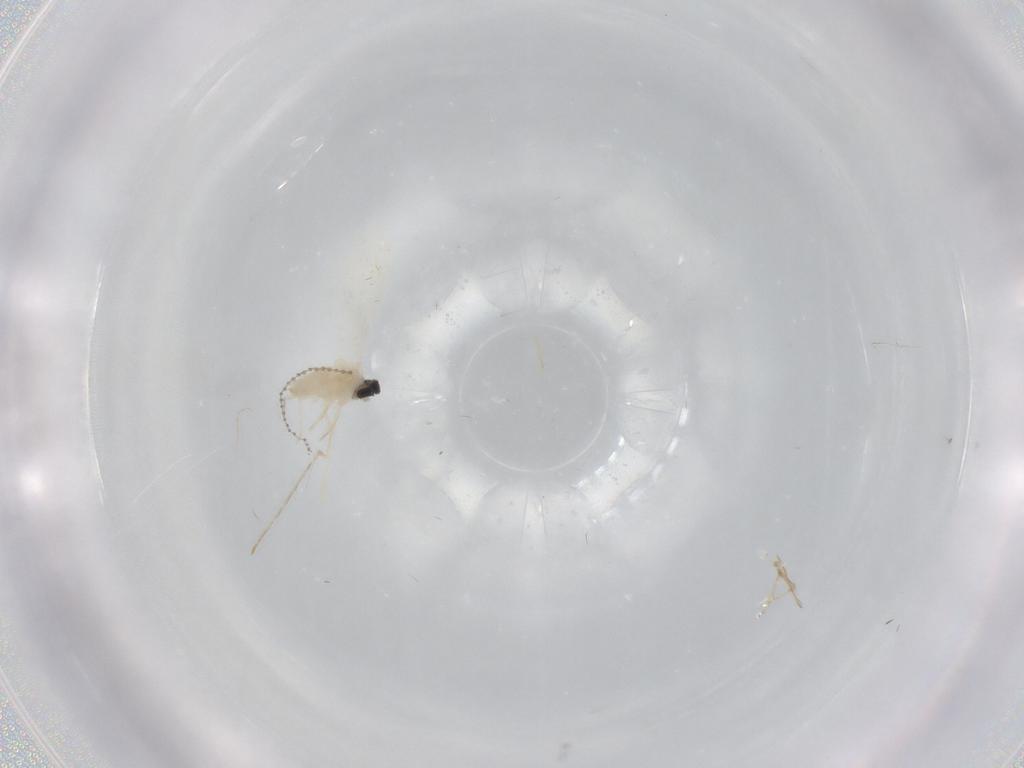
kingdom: Animalia
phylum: Arthropoda
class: Insecta
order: Diptera
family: Cecidomyiidae
